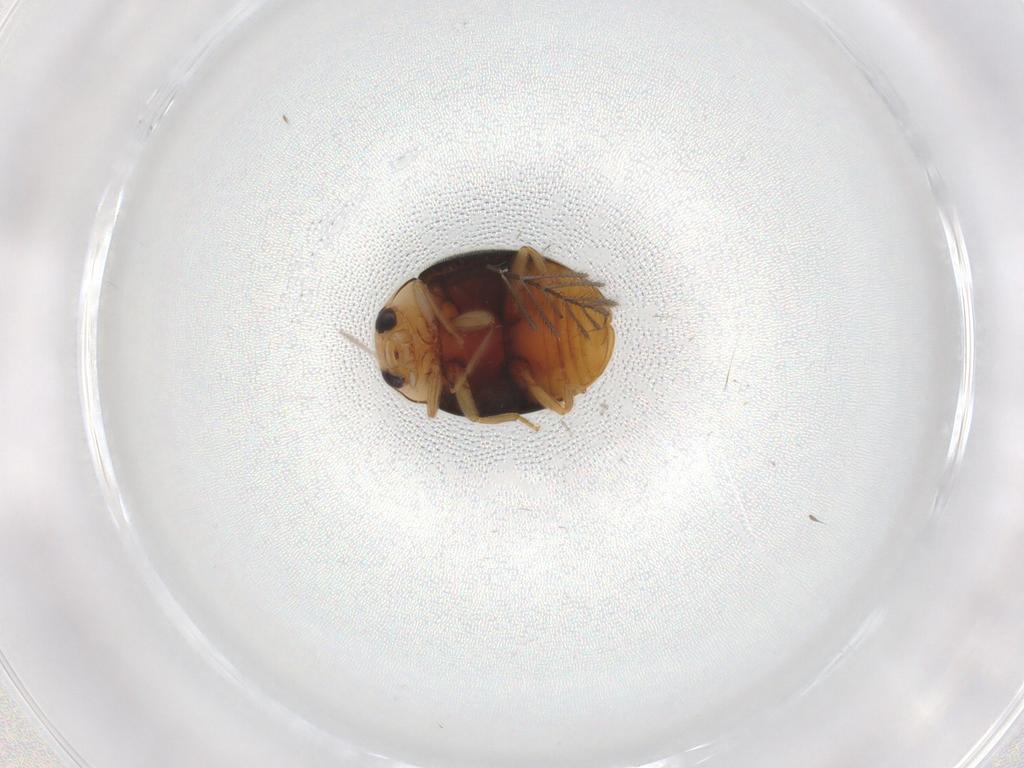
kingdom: Animalia
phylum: Arthropoda
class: Insecta
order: Coleoptera
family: Coccinellidae
